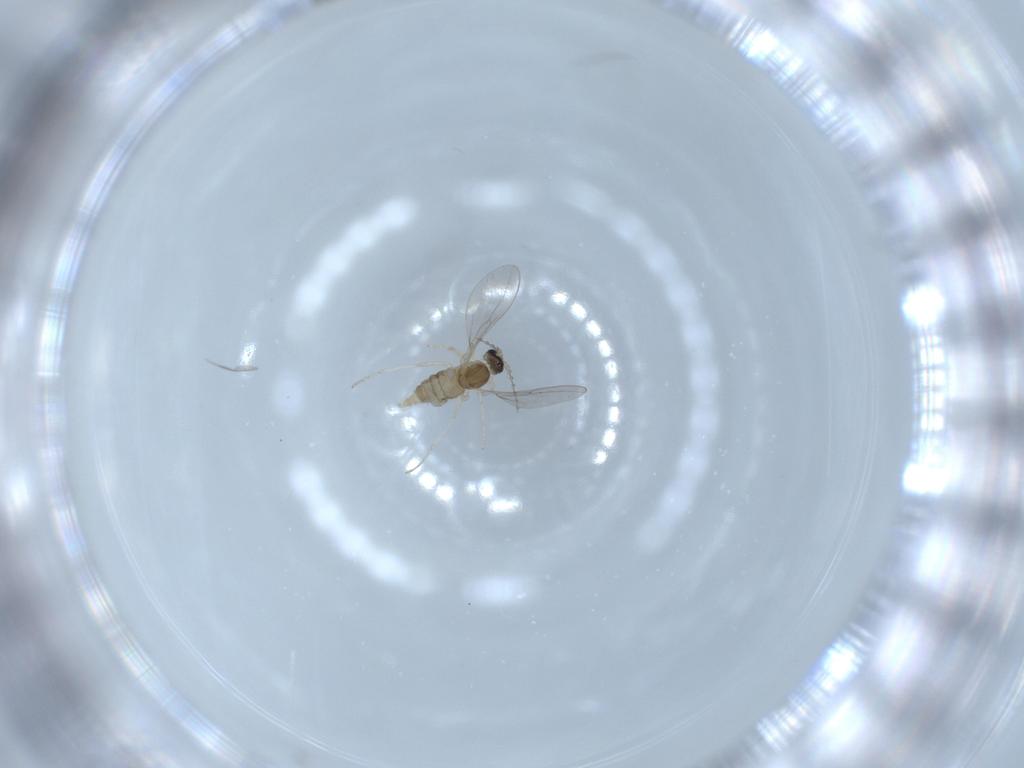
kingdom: Animalia
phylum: Arthropoda
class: Insecta
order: Diptera
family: Cecidomyiidae
